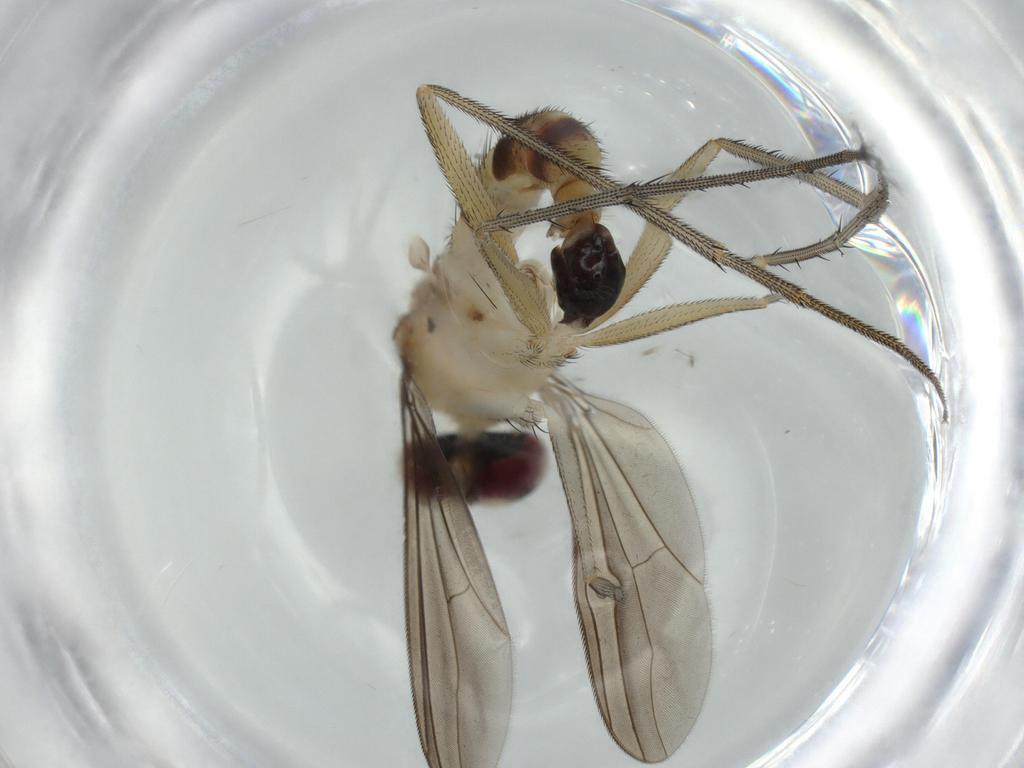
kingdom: Animalia
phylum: Arthropoda
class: Insecta
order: Diptera
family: Dolichopodidae
